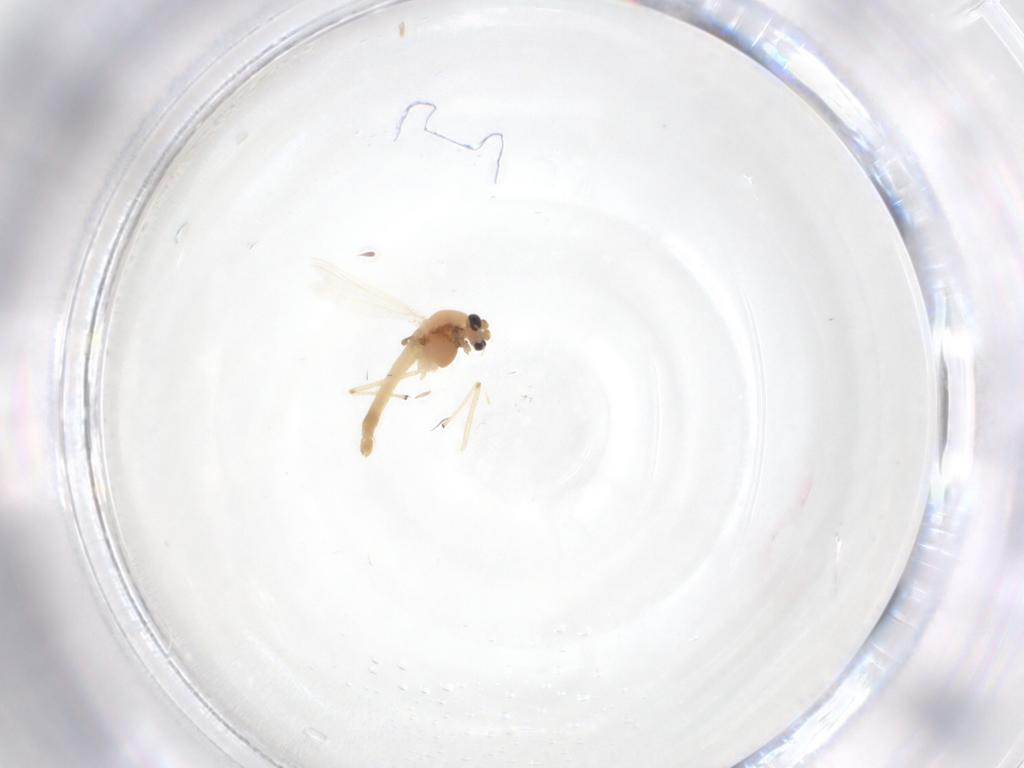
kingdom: Animalia
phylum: Arthropoda
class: Insecta
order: Diptera
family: Chironomidae
